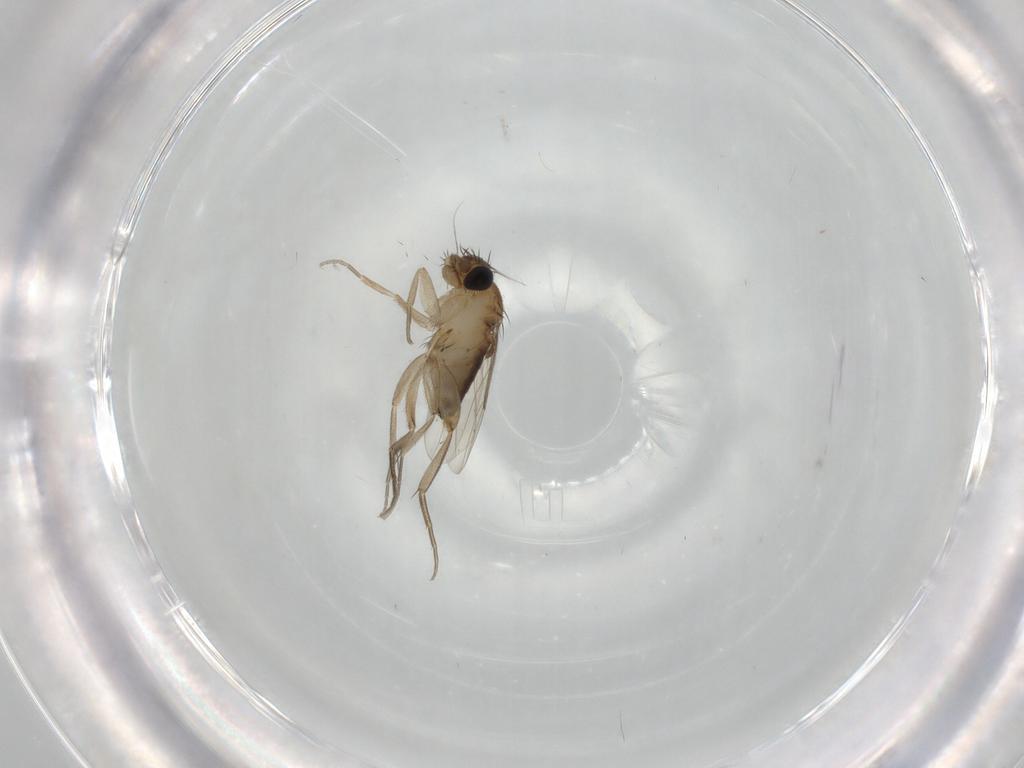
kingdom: Animalia
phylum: Arthropoda
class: Insecta
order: Diptera
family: Phoridae
